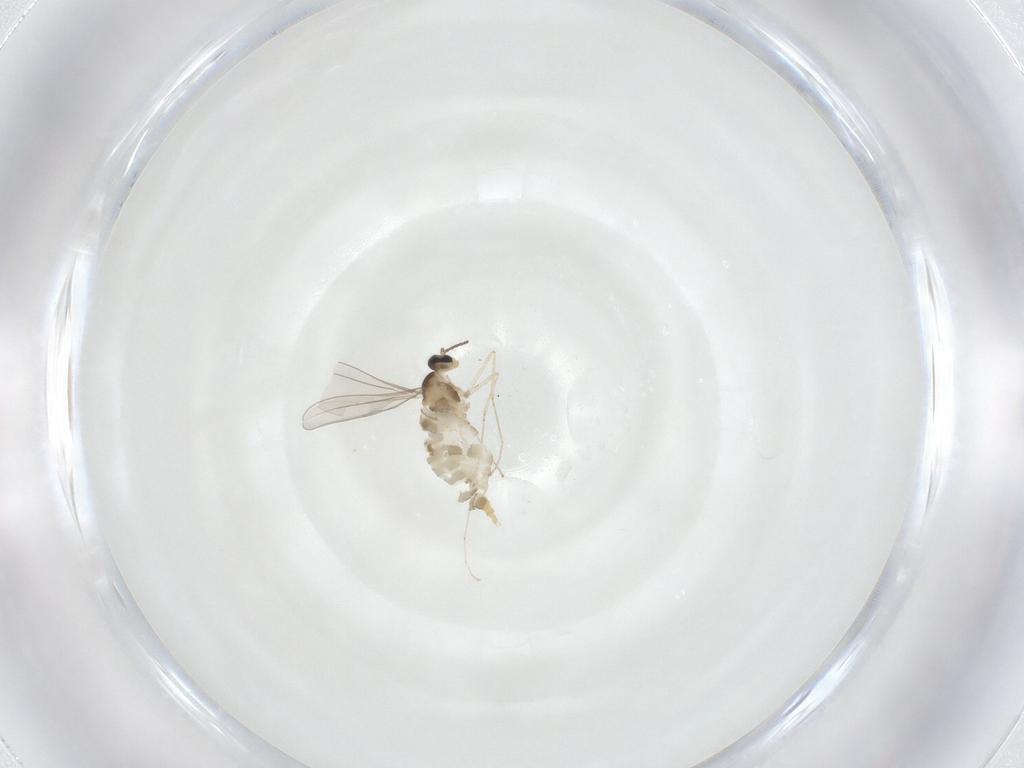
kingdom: Animalia
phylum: Arthropoda
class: Insecta
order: Diptera
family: Cecidomyiidae
